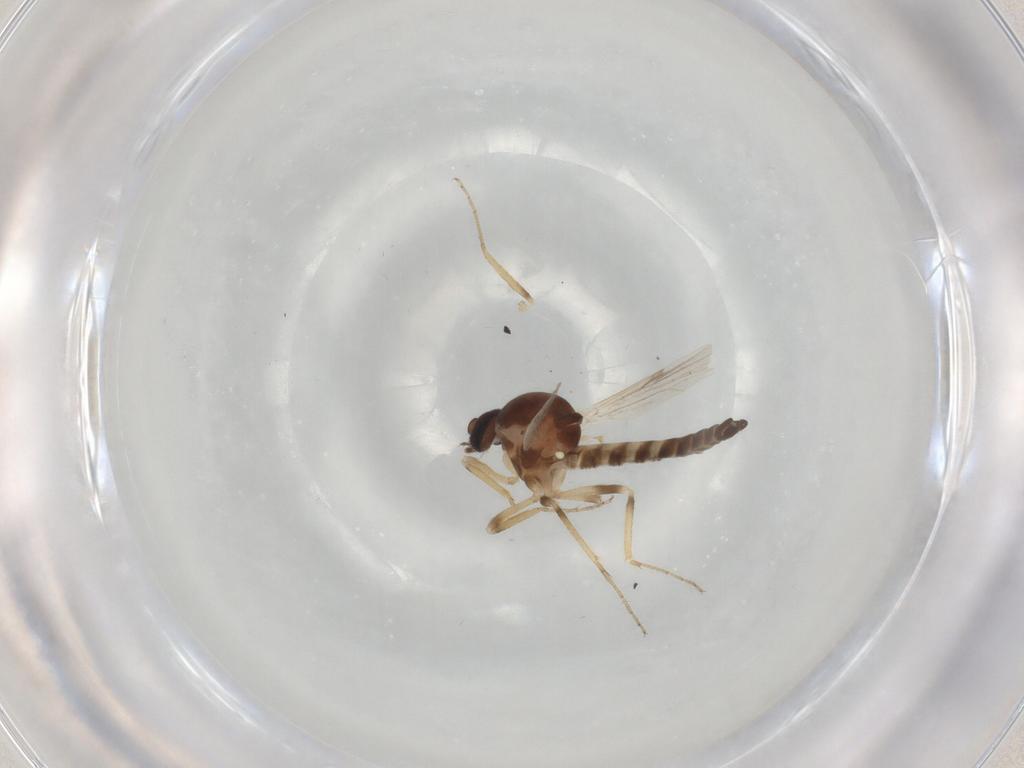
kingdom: Animalia
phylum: Arthropoda
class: Insecta
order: Diptera
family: Ceratopogonidae
